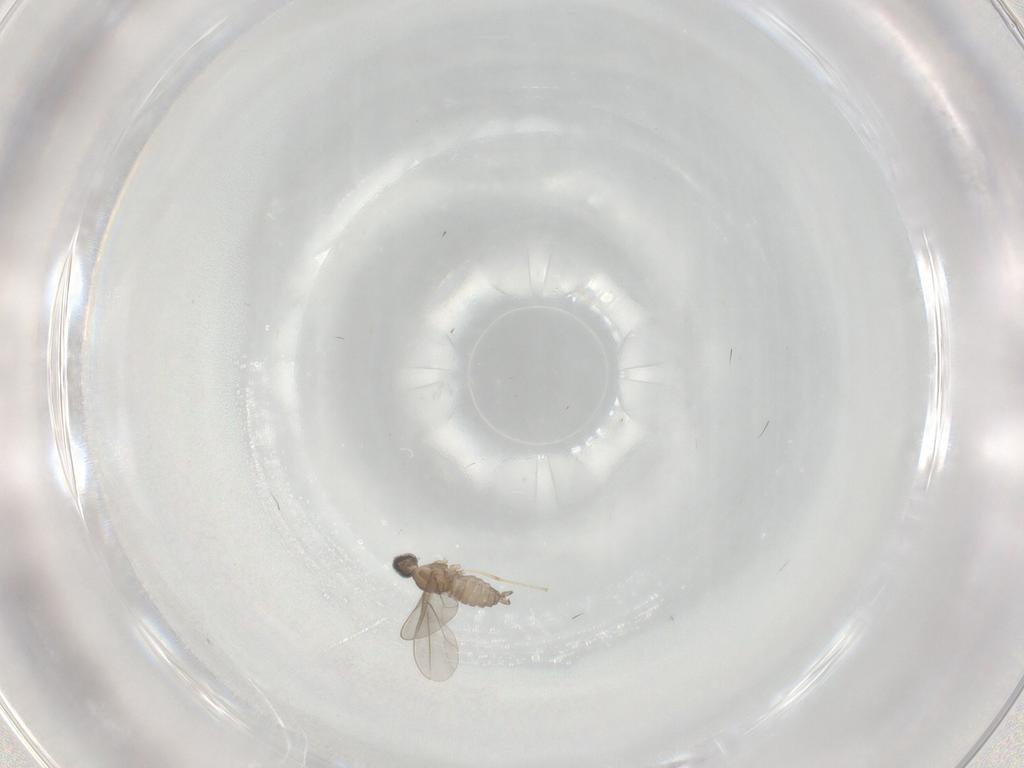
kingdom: Animalia
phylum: Arthropoda
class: Insecta
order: Diptera
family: Cecidomyiidae
